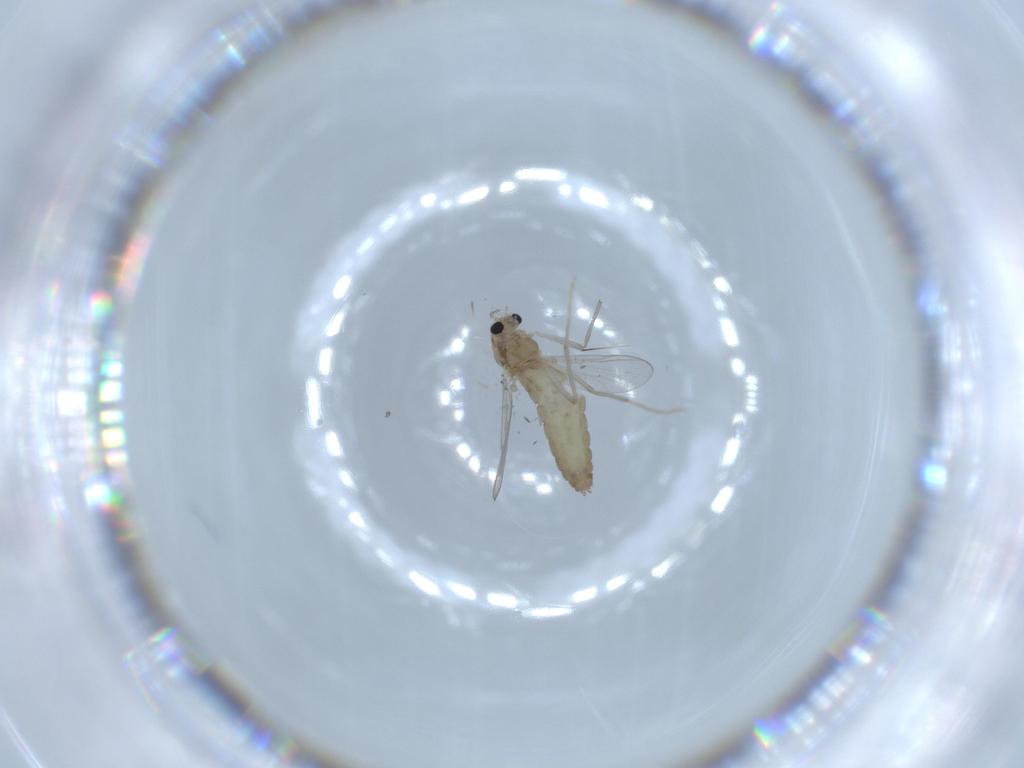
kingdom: Animalia
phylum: Arthropoda
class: Insecta
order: Diptera
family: Chironomidae
